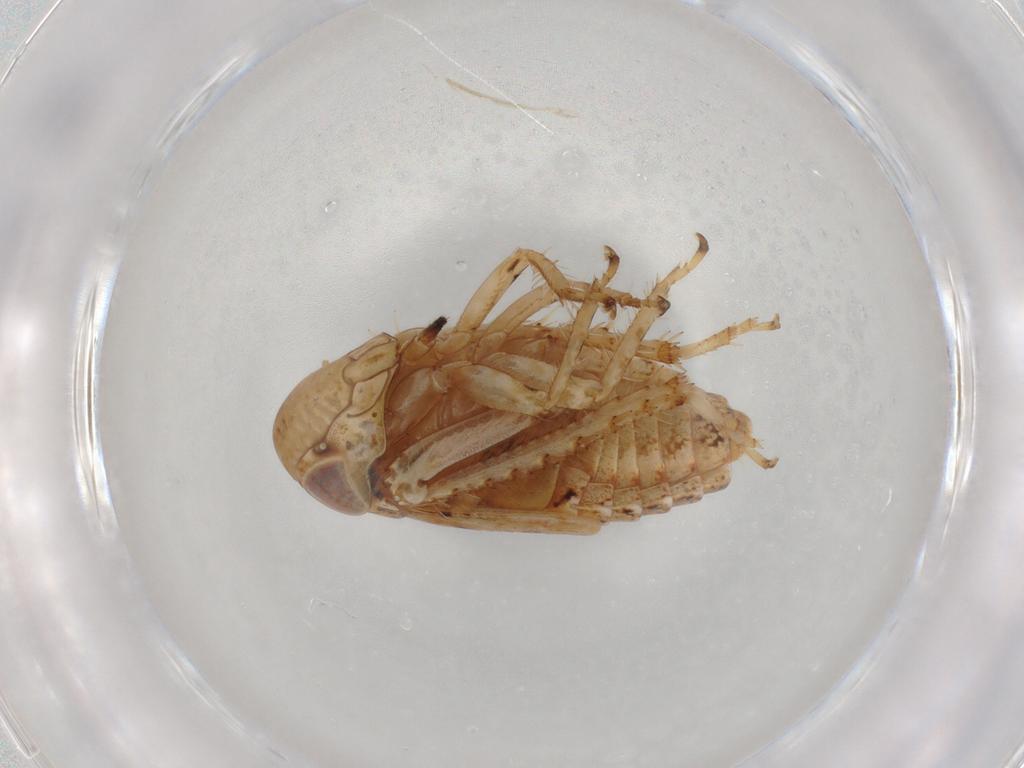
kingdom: Animalia
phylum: Arthropoda
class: Insecta
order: Hemiptera
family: Cicadellidae
